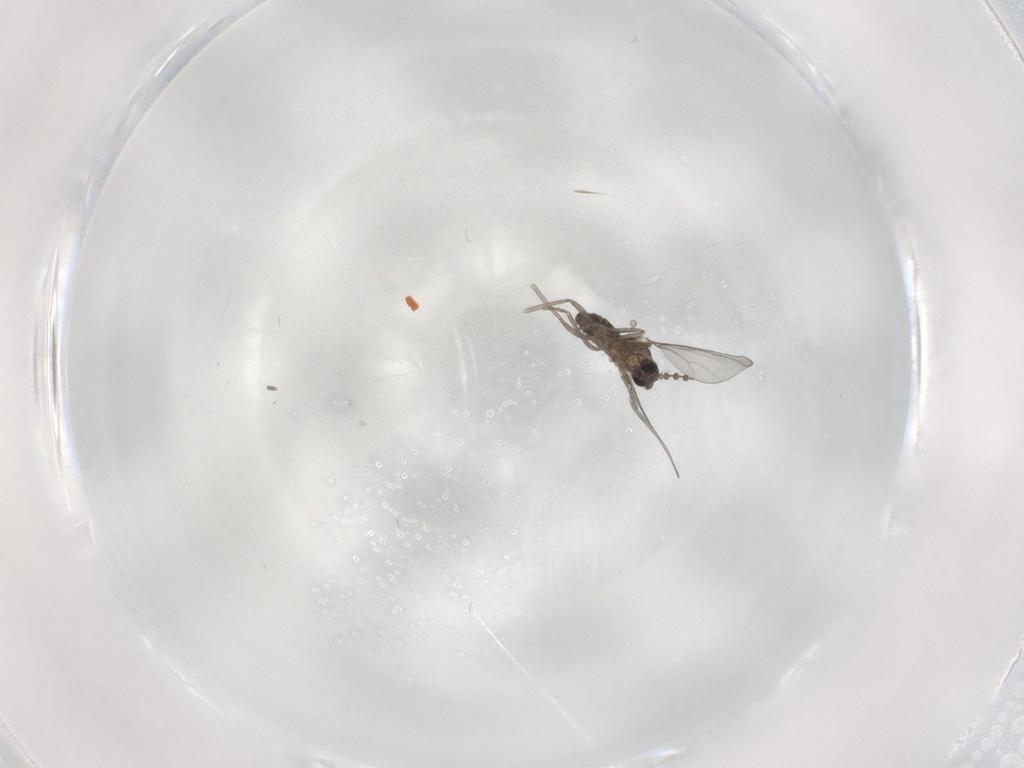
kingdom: Animalia
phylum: Arthropoda
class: Insecta
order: Diptera
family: Cecidomyiidae
